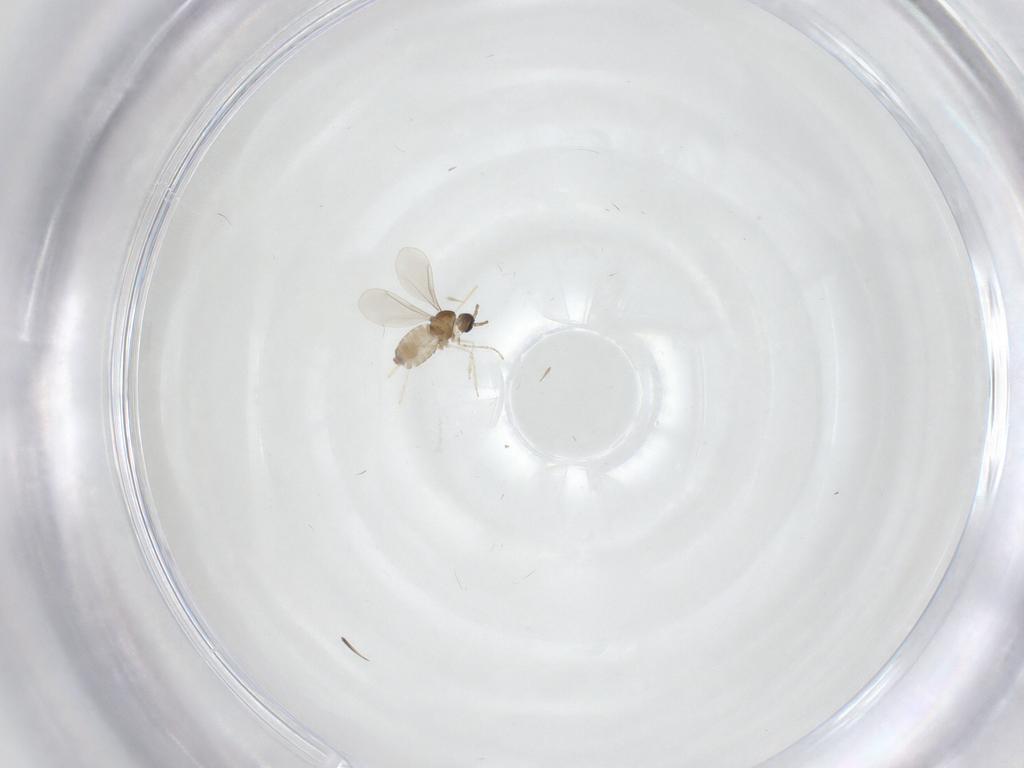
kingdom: Animalia
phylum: Arthropoda
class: Insecta
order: Diptera
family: Cecidomyiidae
